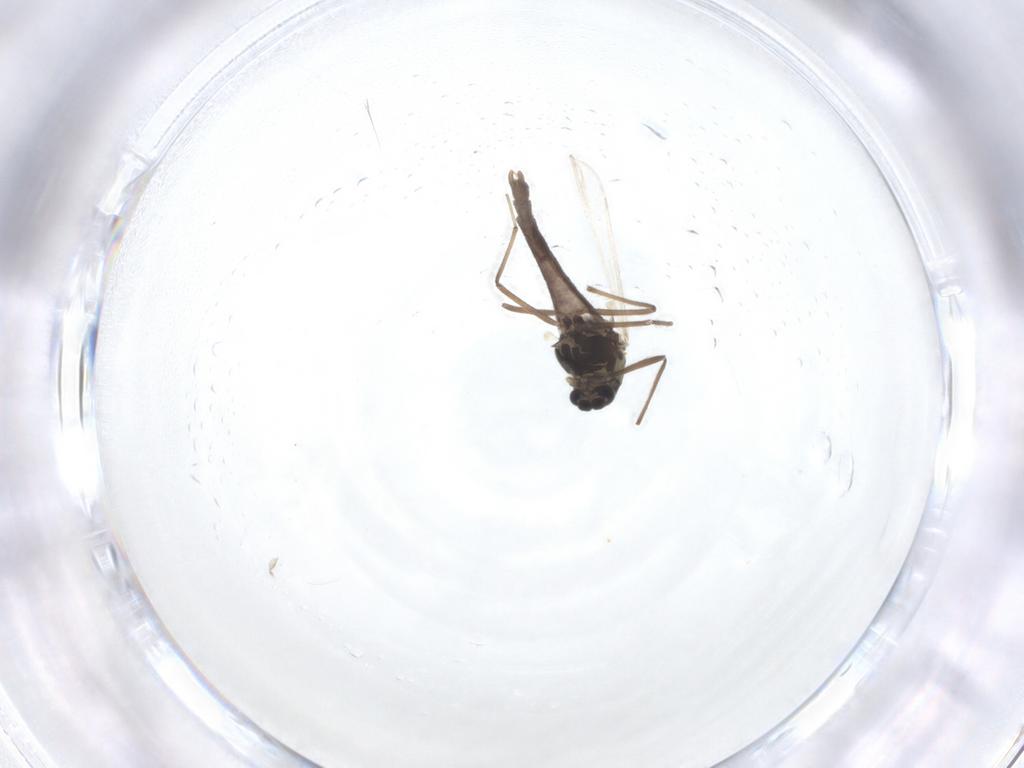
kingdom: Animalia
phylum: Arthropoda
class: Insecta
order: Diptera
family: Chironomidae
